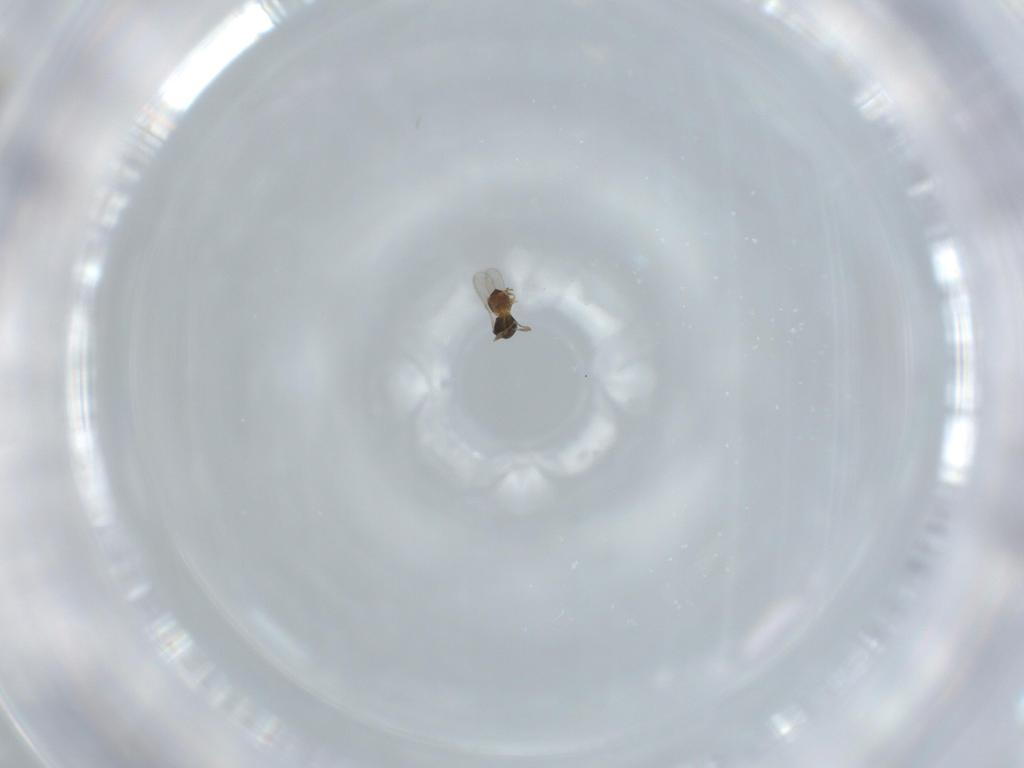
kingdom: Animalia
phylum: Arthropoda
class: Insecta
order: Hymenoptera
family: Scelionidae
